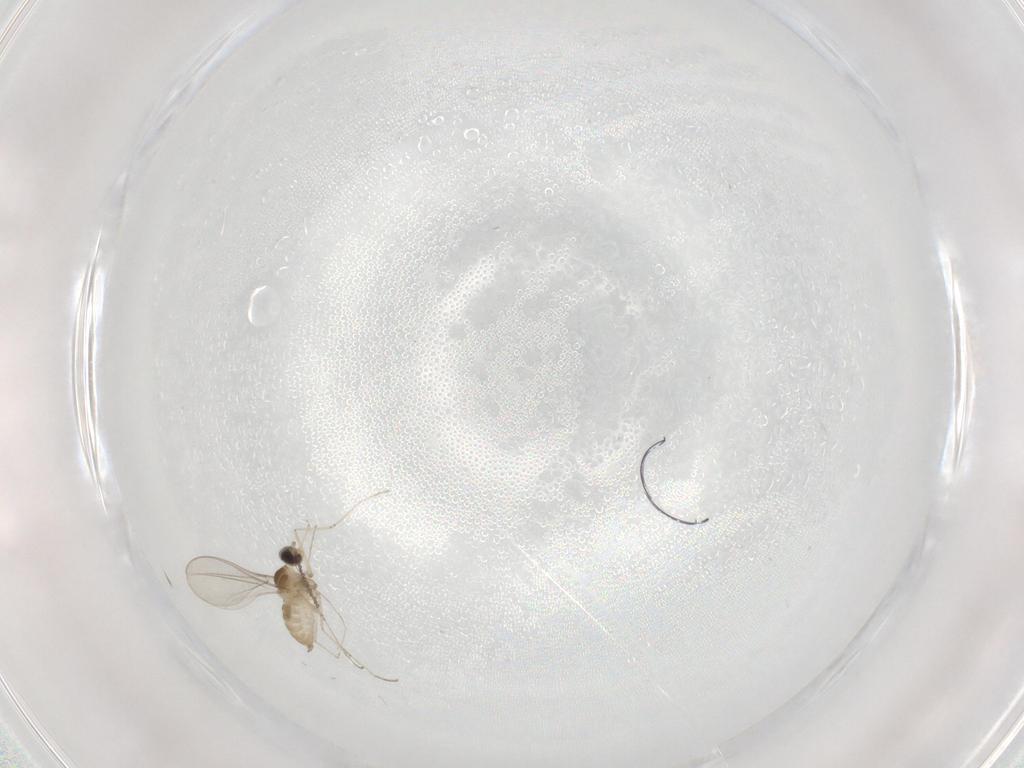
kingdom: Animalia
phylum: Arthropoda
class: Insecta
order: Diptera
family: Cecidomyiidae
